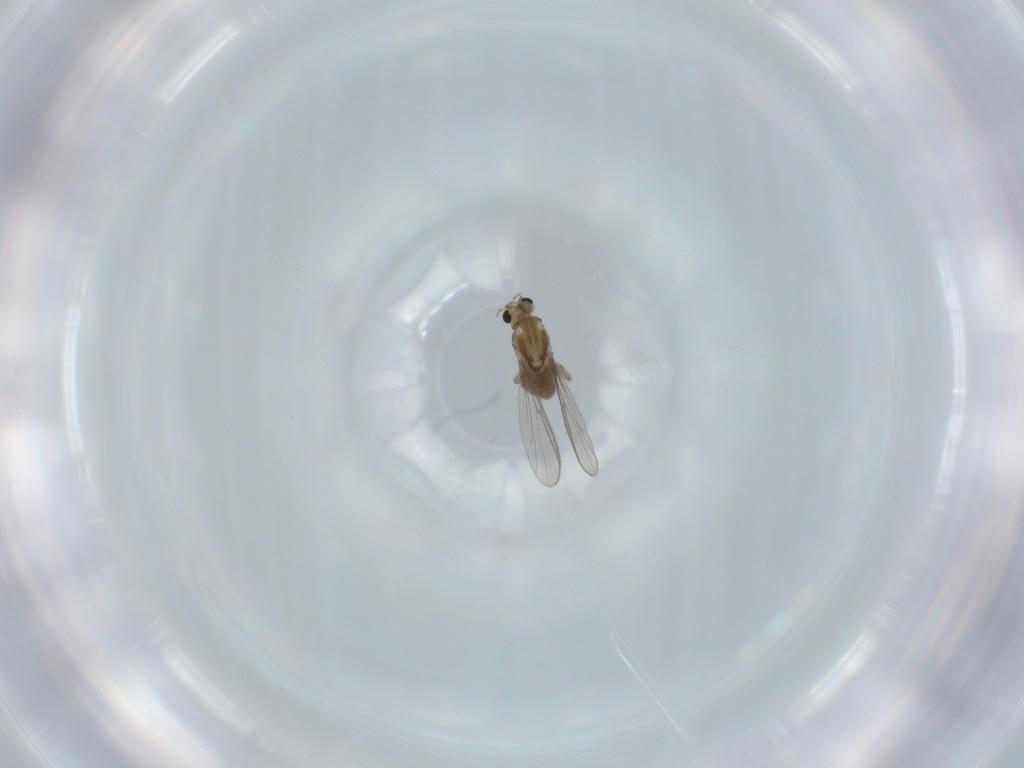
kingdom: Animalia
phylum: Arthropoda
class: Insecta
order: Diptera
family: Chironomidae
